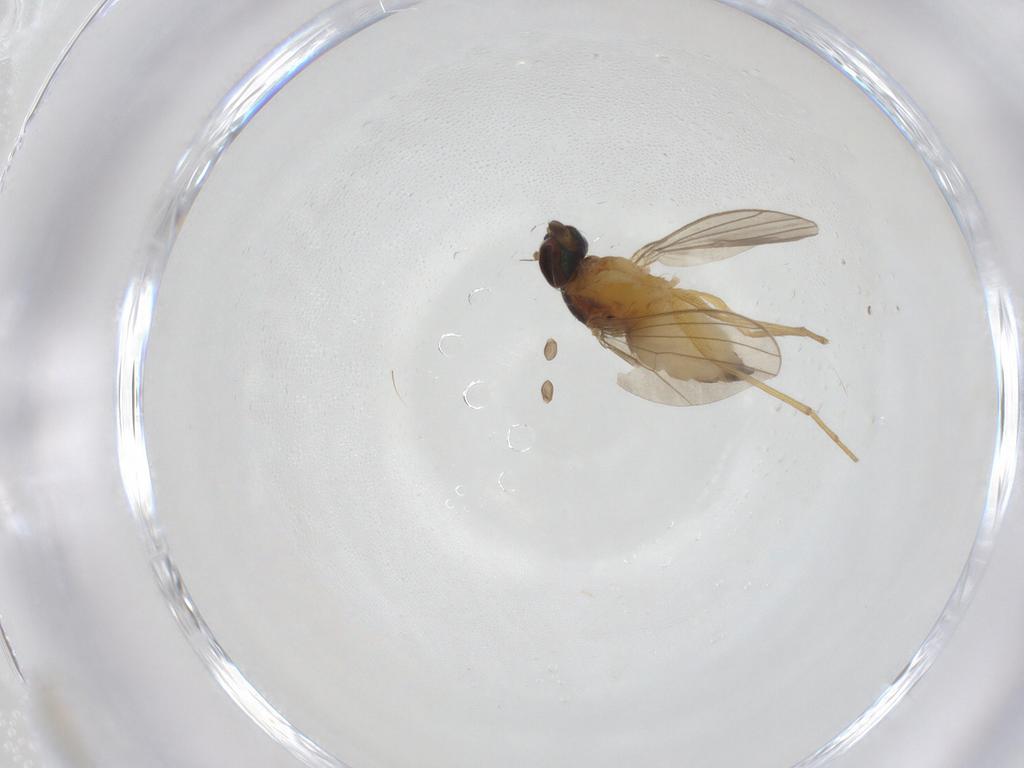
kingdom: Animalia
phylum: Arthropoda
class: Insecta
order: Diptera
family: Dolichopodidae
